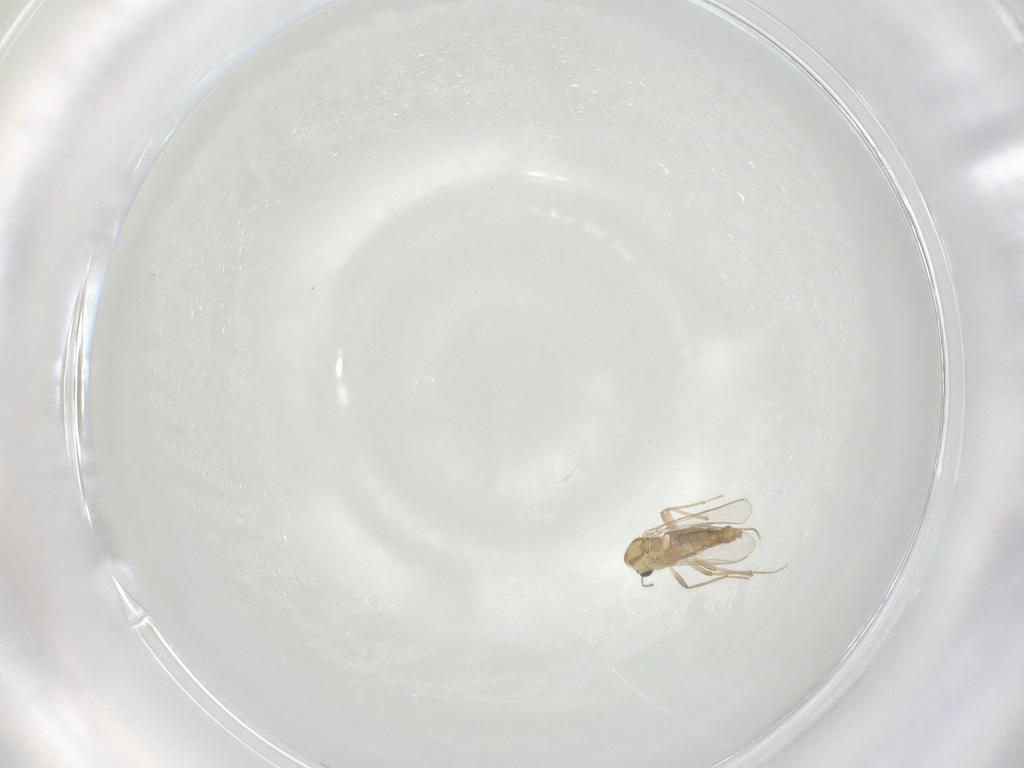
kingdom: Animalia
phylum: Arthropoda
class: Insecta
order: Diptera
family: Chironomidae
